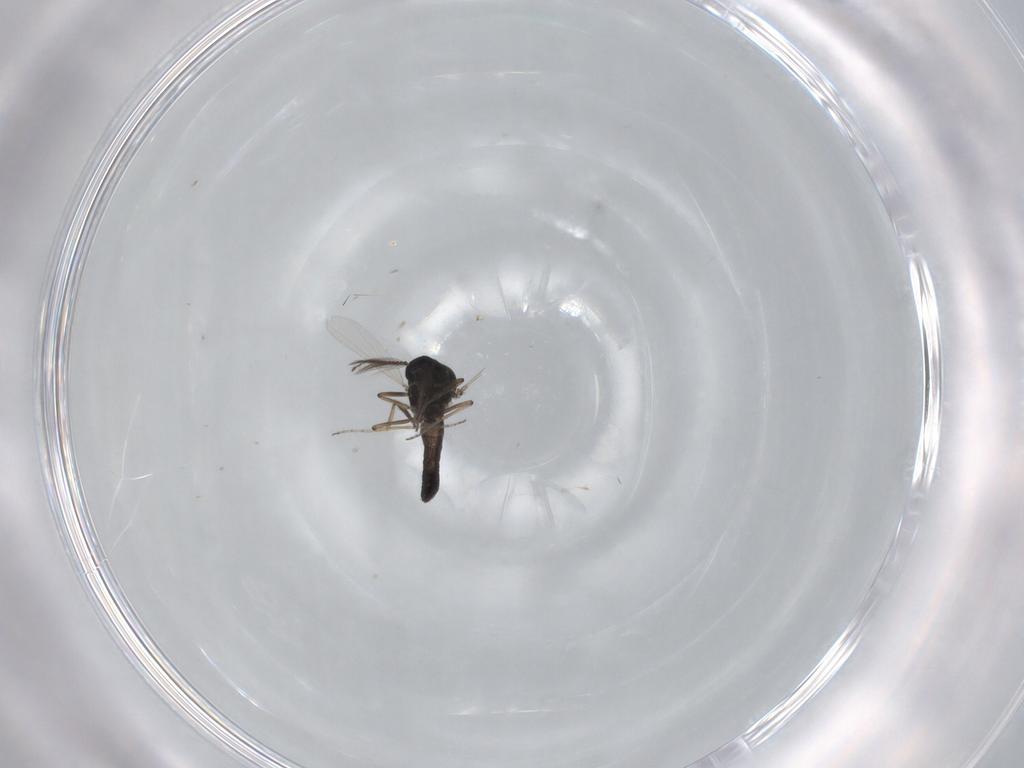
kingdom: Animalia
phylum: Arthropoda
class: Insecta
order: Diptera
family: Ceratopogonidae
